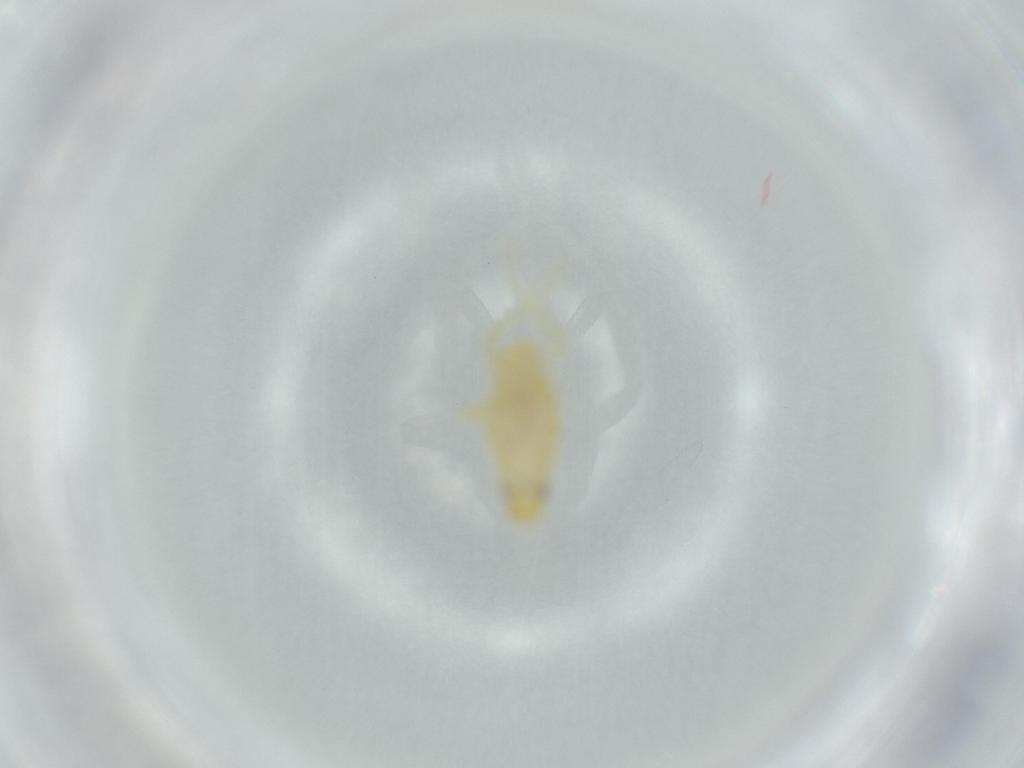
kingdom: Animalia
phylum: Arthropoda
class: Insecta
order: Hemiptera
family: Tropiduchidae
